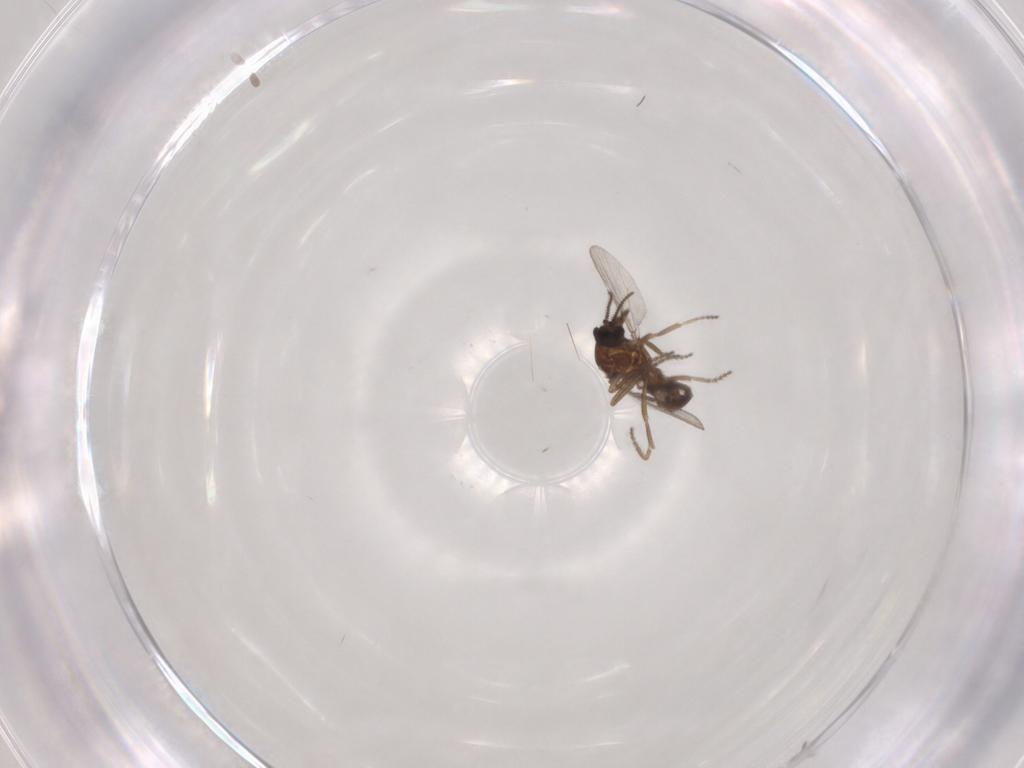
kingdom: Animalia
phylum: Arthropoda
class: Insecta
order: Diptera
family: Ceratopogonidae
